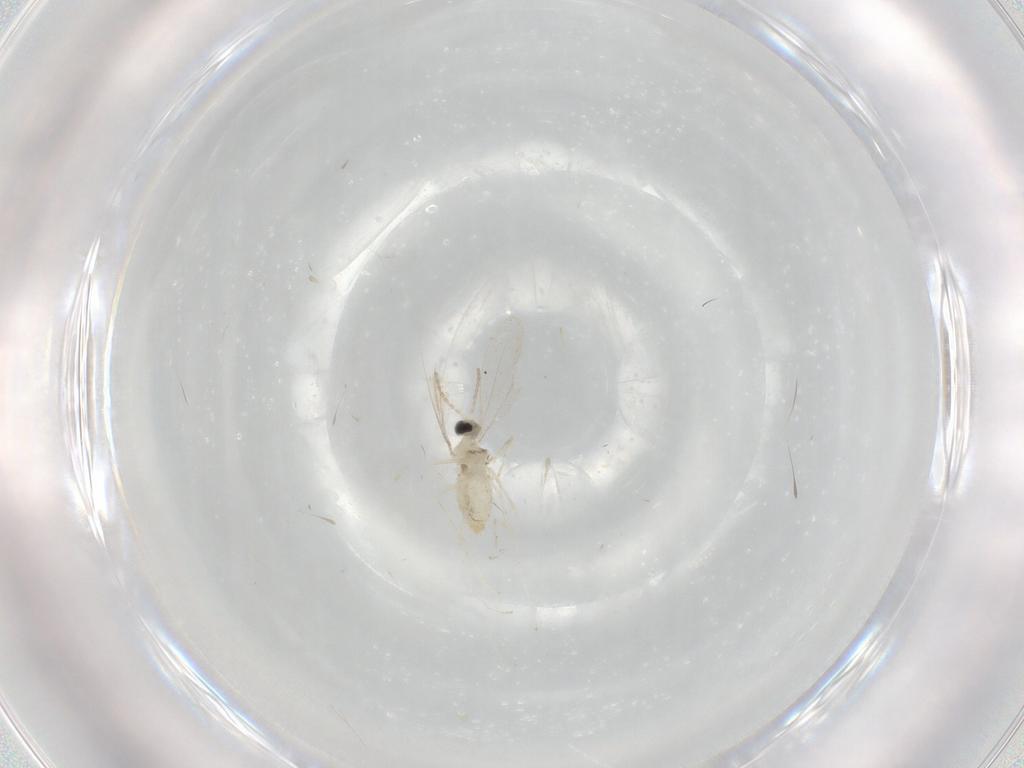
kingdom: Animalia
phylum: Arthropoda
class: Insecta
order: Diptera
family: Cecidomyiidae
